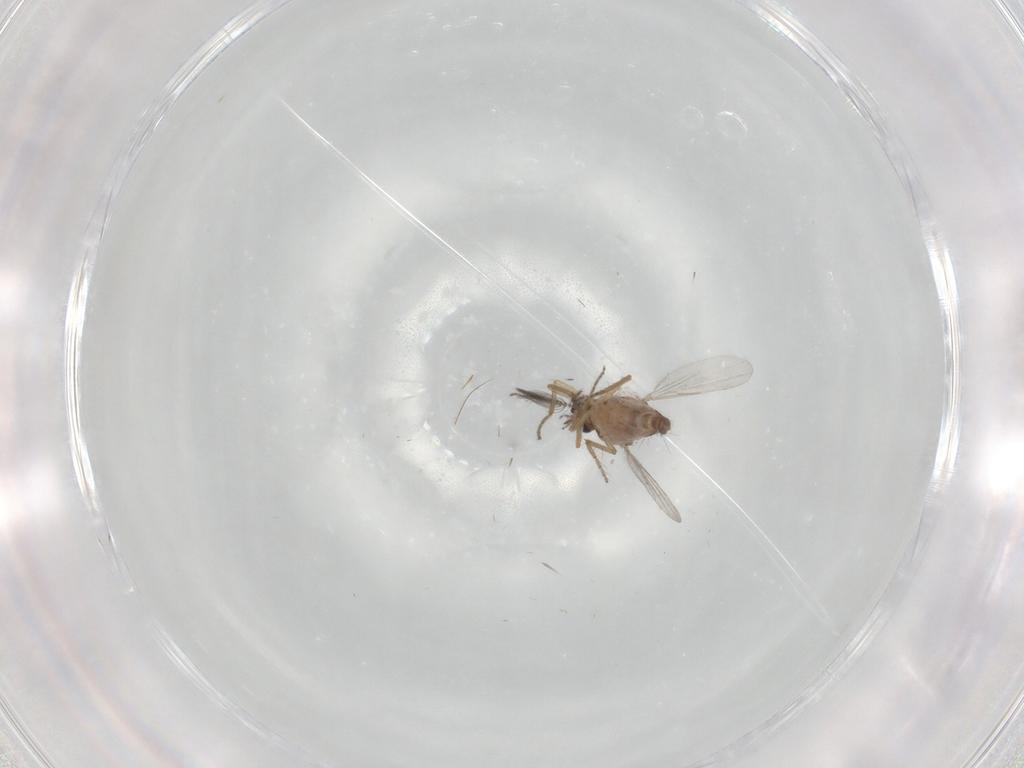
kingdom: Animalia
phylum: Arthropoda
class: Insecta
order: Diptera
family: Ceratopogonidae
